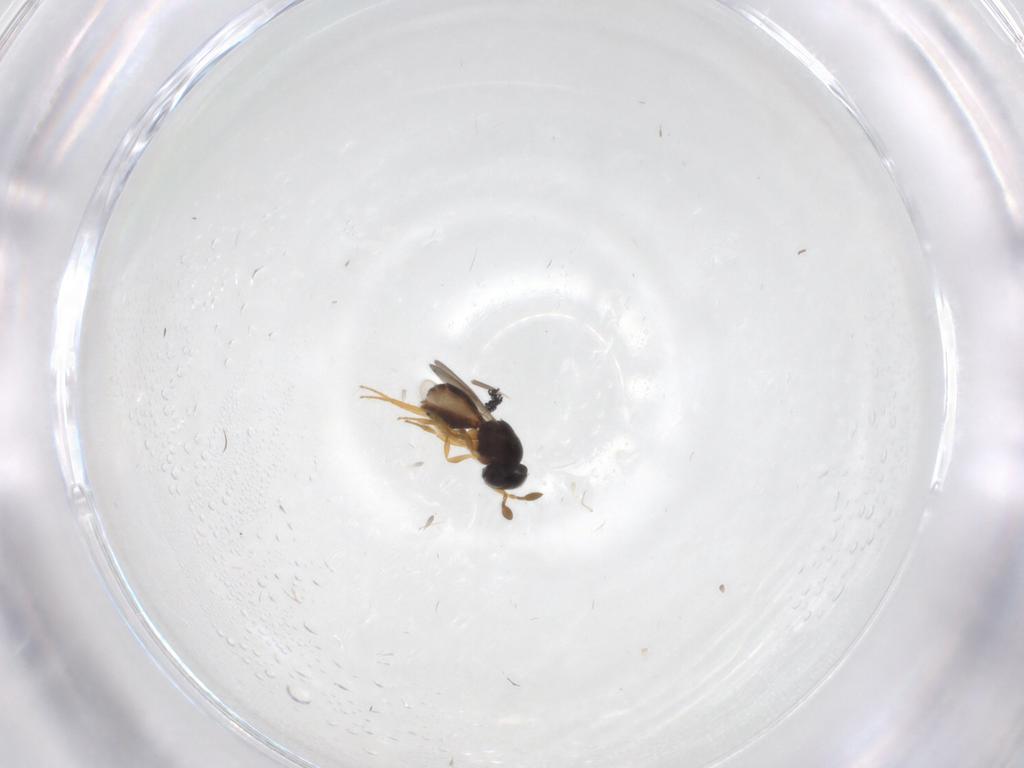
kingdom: Animalia
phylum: Arthropoda
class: Insecta
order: Hymenoptera
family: Scelionidae
